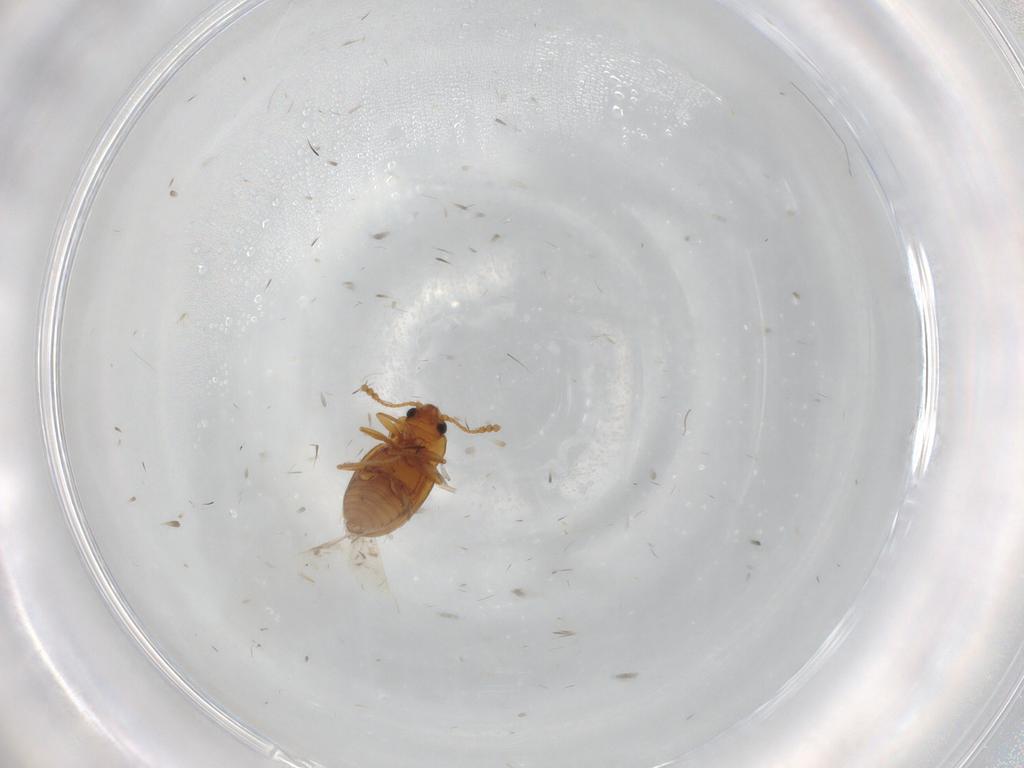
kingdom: Animalia
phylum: Arthropoda
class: Insecta
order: Coleoptera
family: Erotylidae
